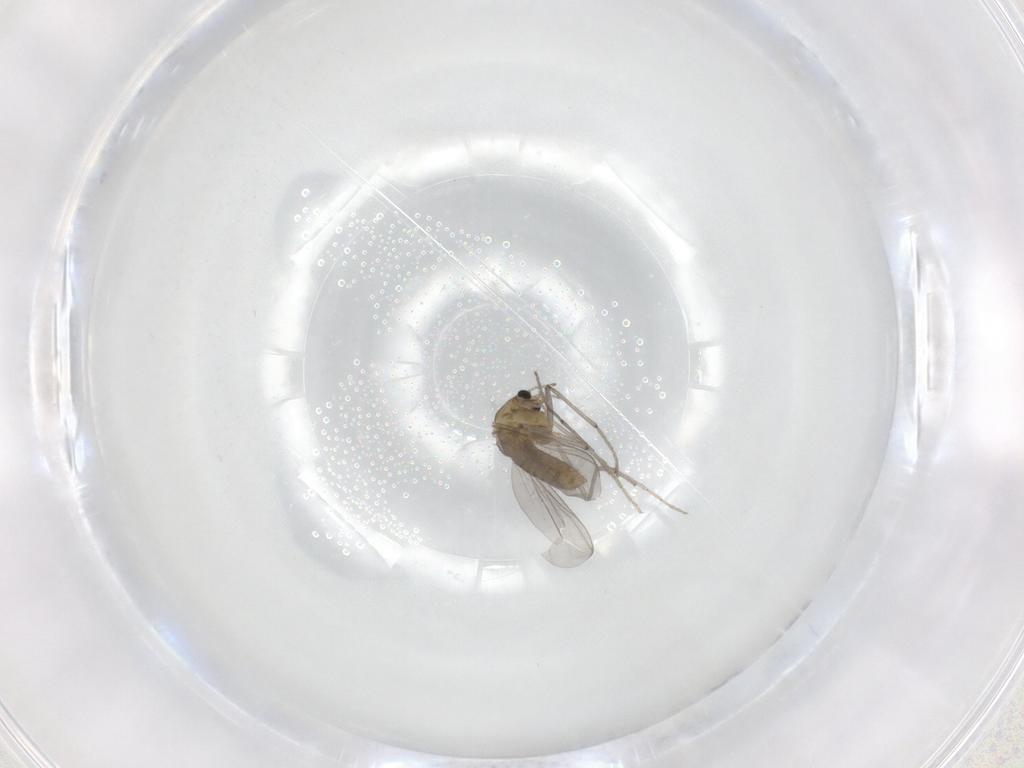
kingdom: Animalia
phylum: Arthropoda
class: Insecta
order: Diptera
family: Chironomidae
